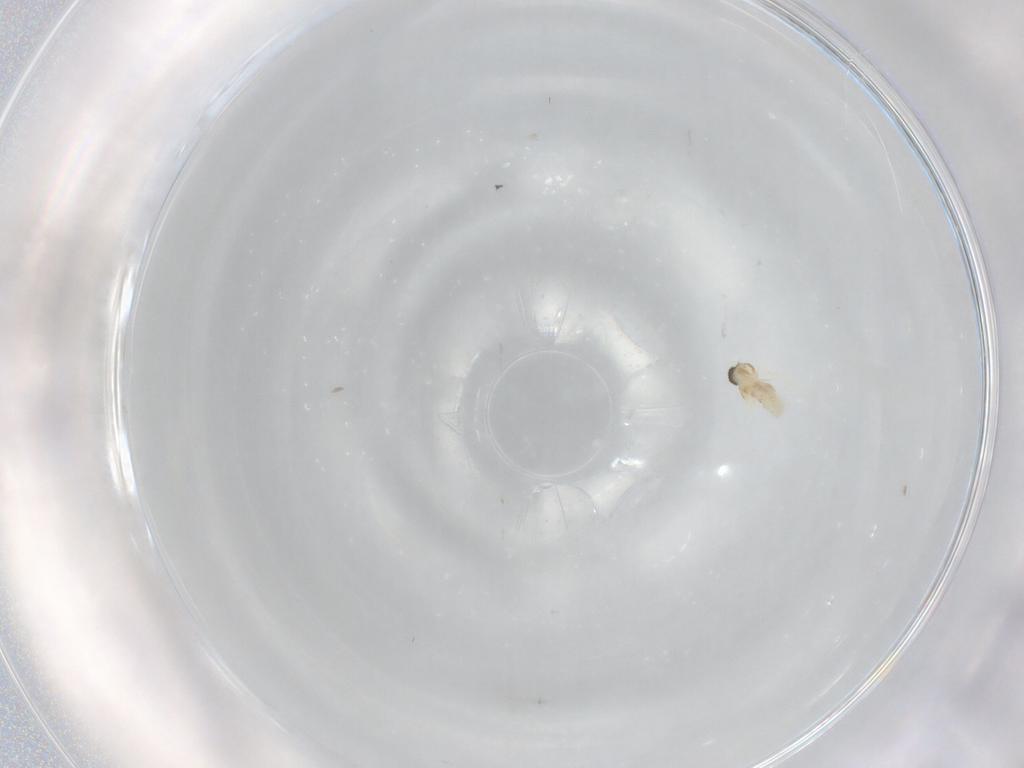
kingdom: Animalia
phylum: Arthropoda
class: Insecta
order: Diptera
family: Cecidomyiidae
